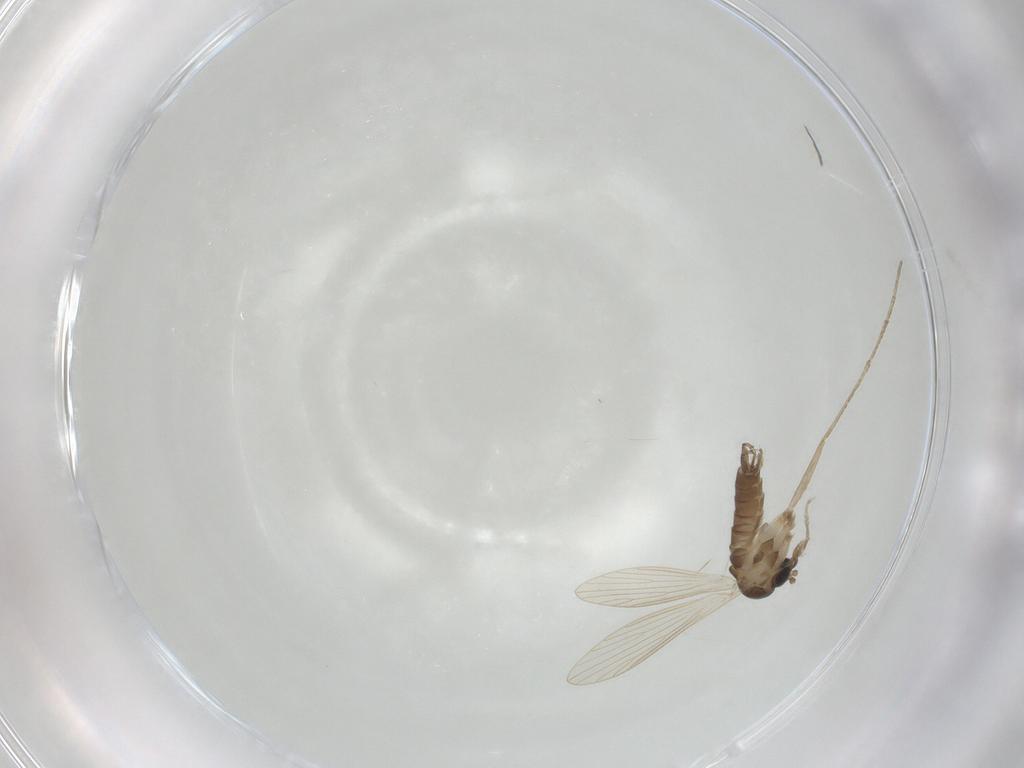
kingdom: Animalia
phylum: Arthropoda
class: Insecta
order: Diptera
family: Psychodidae
